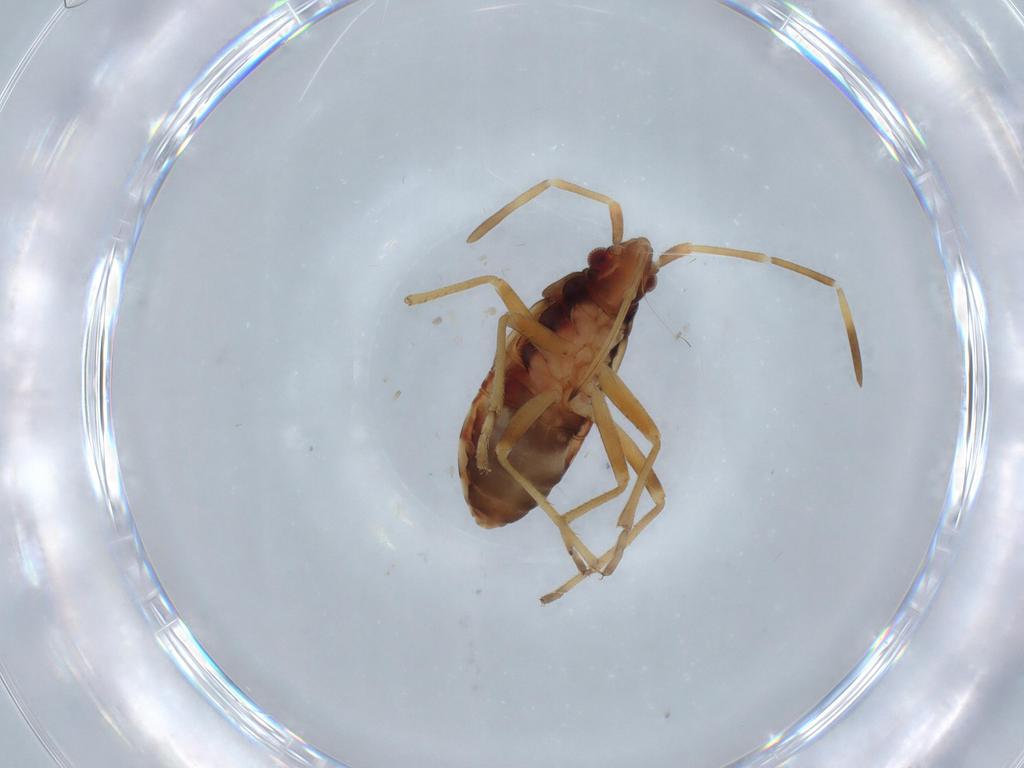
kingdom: Animalia
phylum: Arthropoda
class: Insecta
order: Hemiptera
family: Rhyparochromidae
